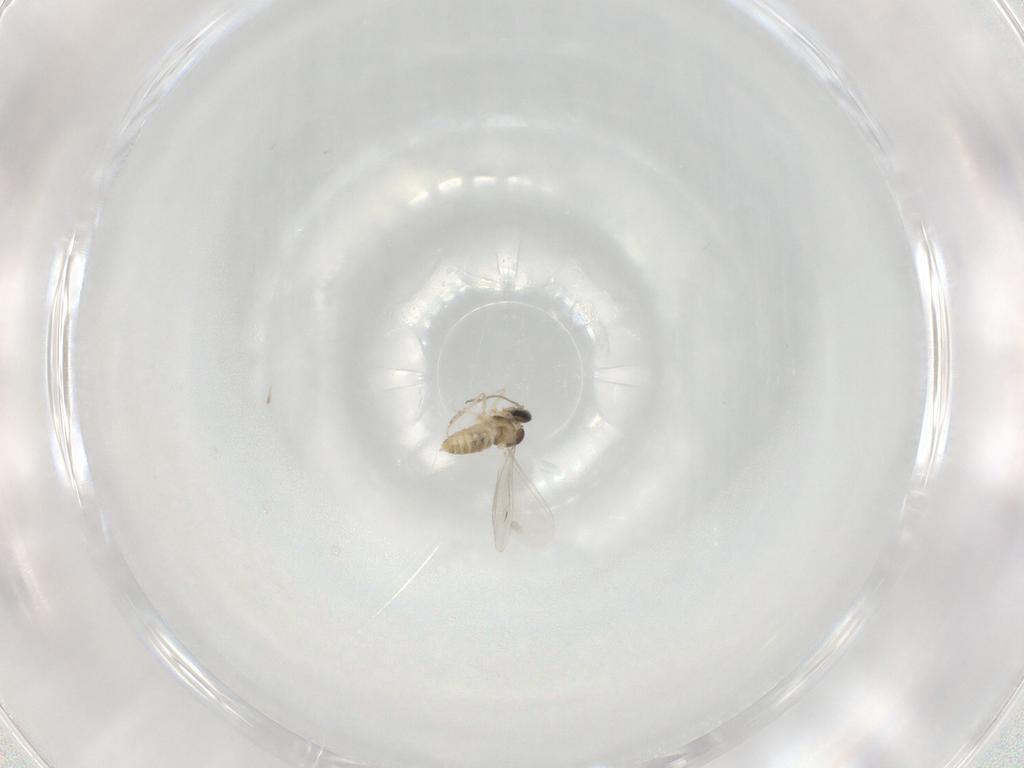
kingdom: Animalia
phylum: Arthropoda
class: Insecta
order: Diptera
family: Cecidomyiidae
